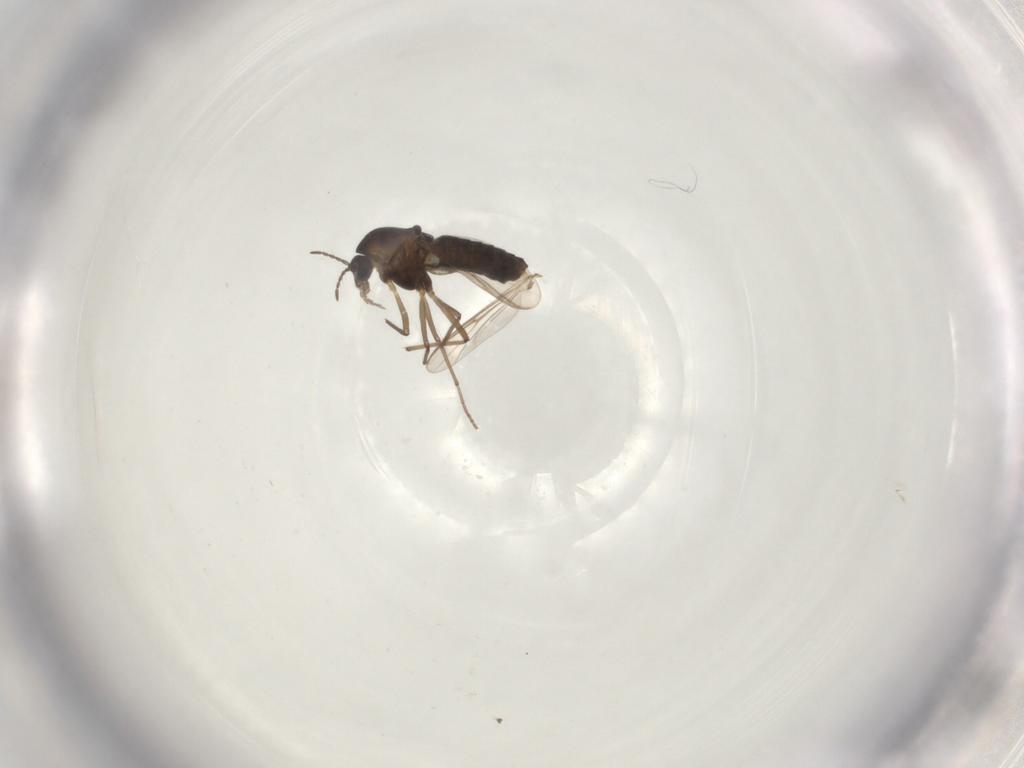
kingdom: Animalia
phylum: Arthropoda
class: Insecta
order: Diptera
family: Chironomidae
